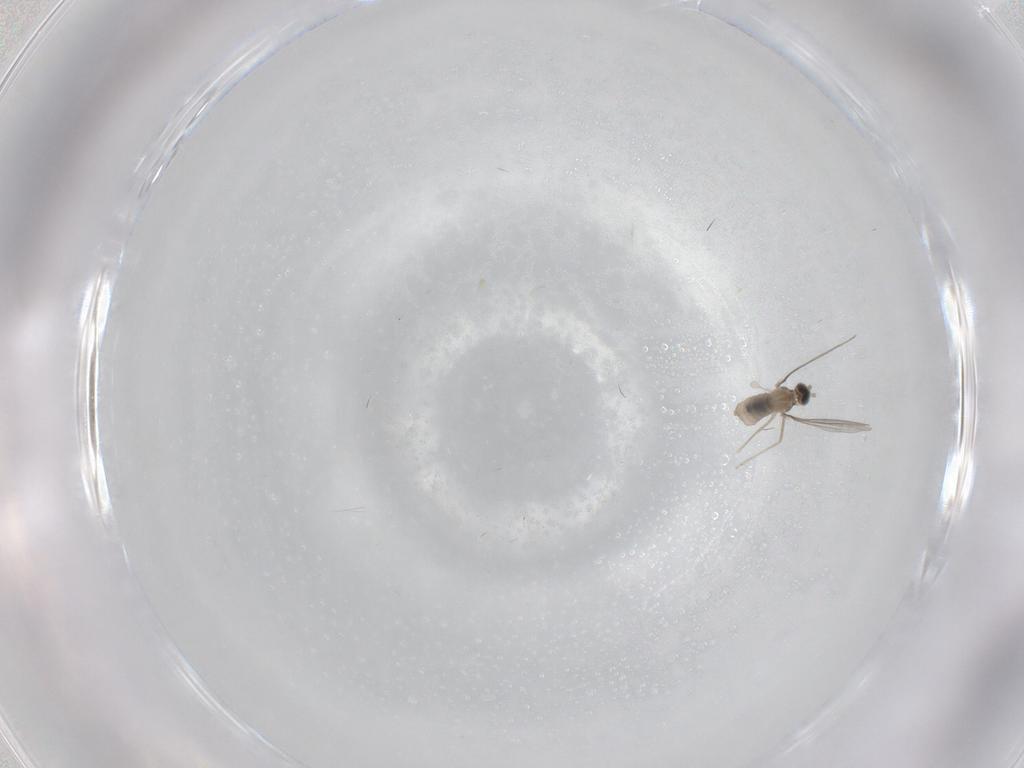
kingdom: Animalia
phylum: Arthropoda
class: Insecta
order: Diptera
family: Cecidomyiidae
